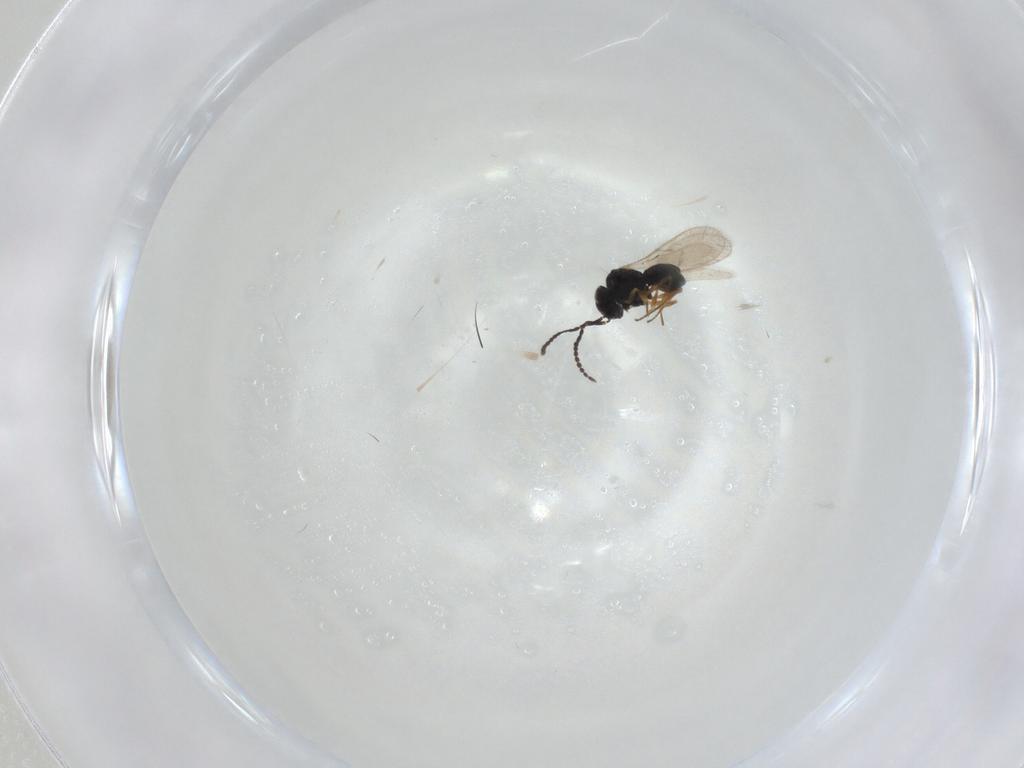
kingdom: Animalia
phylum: Arthropoda
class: Insecta
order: Hymenoptera
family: Scelionidae
